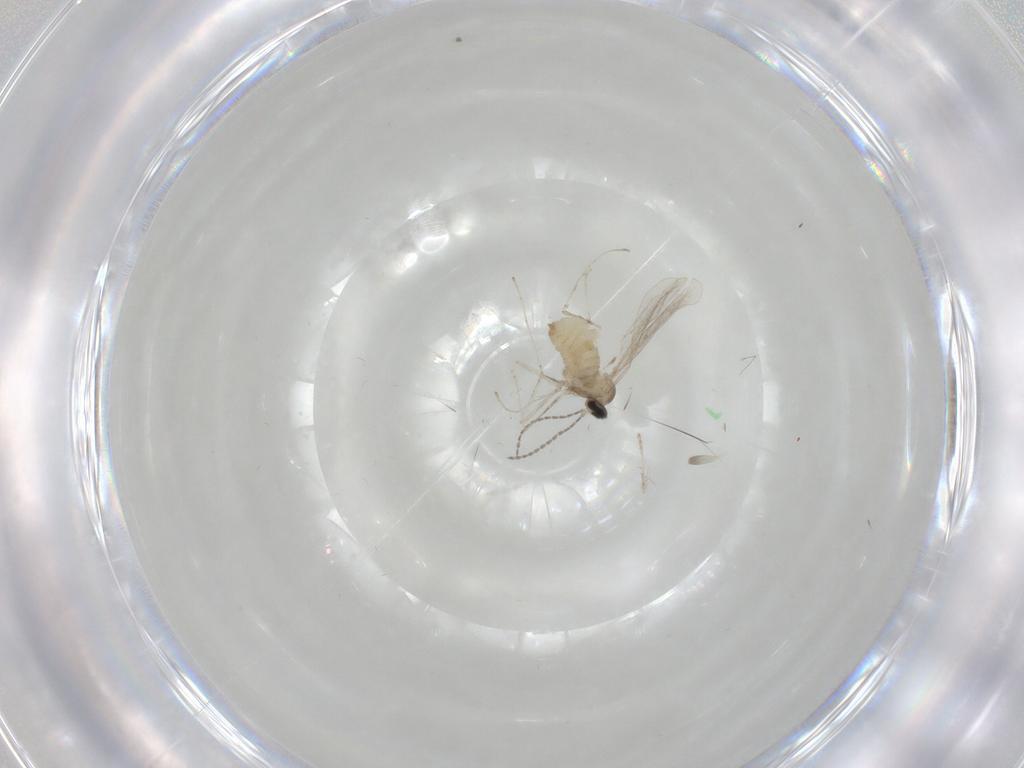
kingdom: Animalia
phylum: Arthropoda
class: Insecta
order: Diptera
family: Cecidomyiidae
